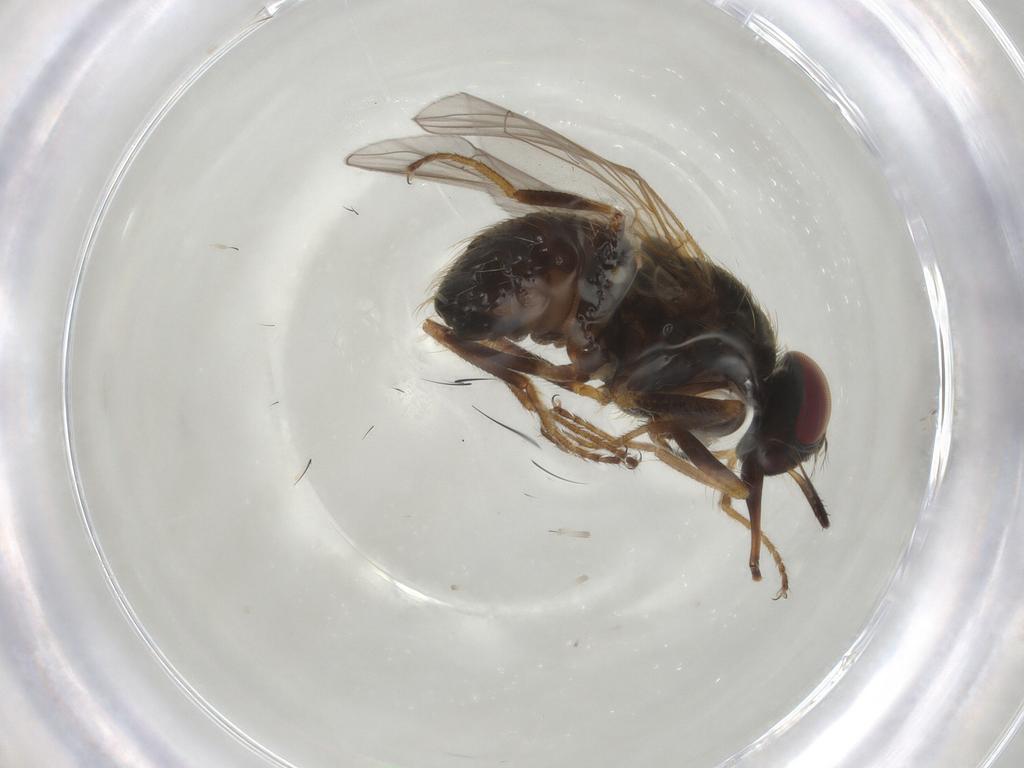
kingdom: Animalia
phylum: Arthropoda
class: Insecta
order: Diptera
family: Muscidae
